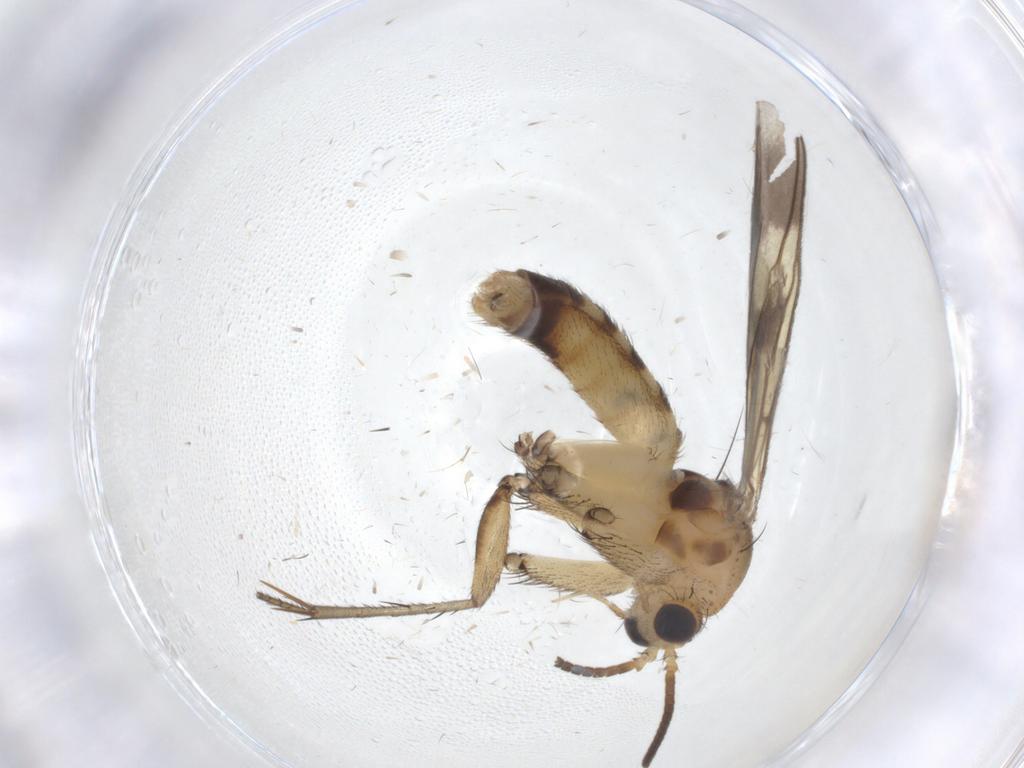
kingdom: Animalia
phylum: Arthropoda
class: Insecta
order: Diptera
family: Mycetophilidae
